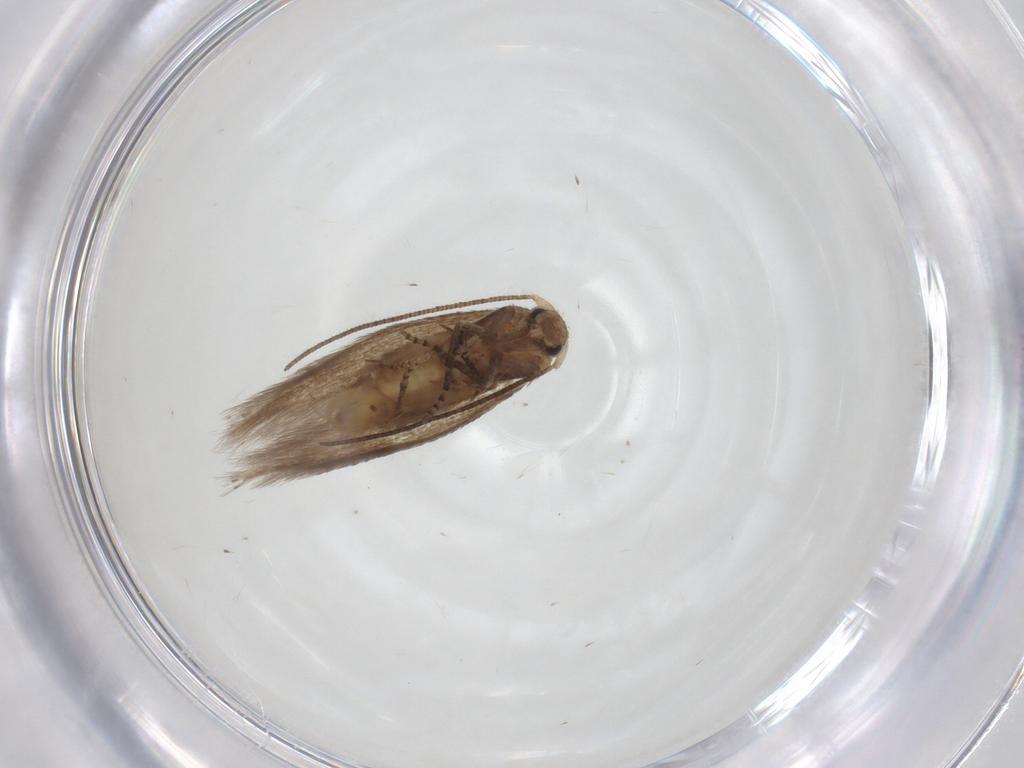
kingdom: Animalia
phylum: Arthropoda
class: Insecta
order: Lepidoptera
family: Bucculatricidae
